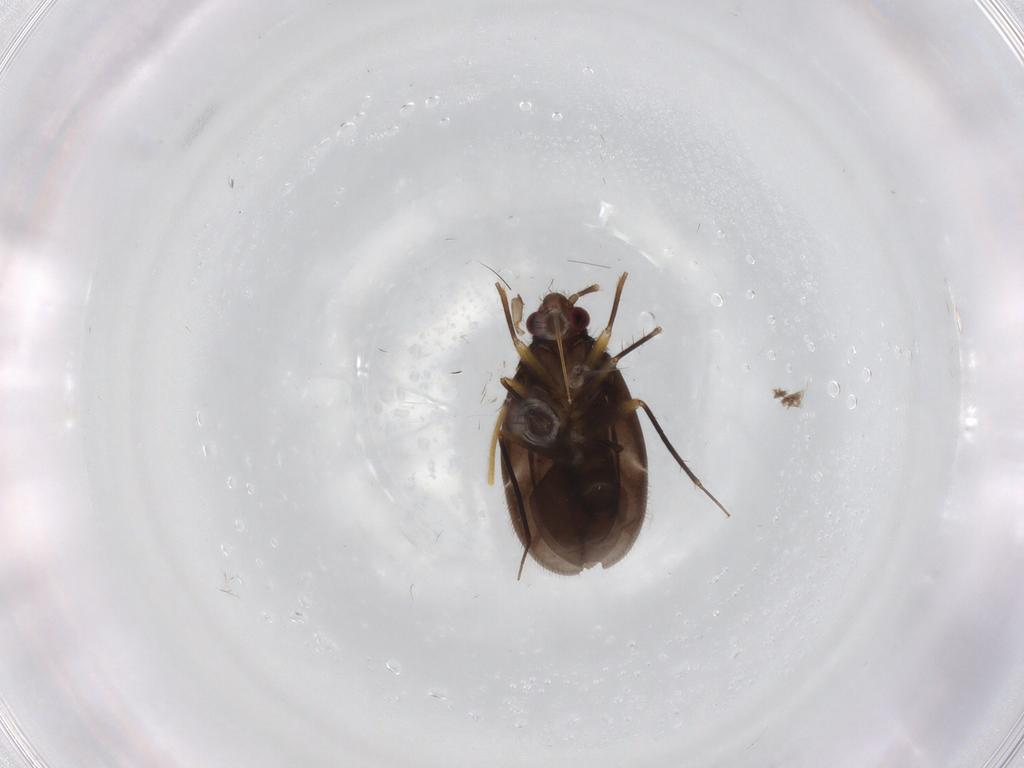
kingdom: Animalia
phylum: Arthropoda
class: Insecta
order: Hemiptera
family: Ceratocombidae
